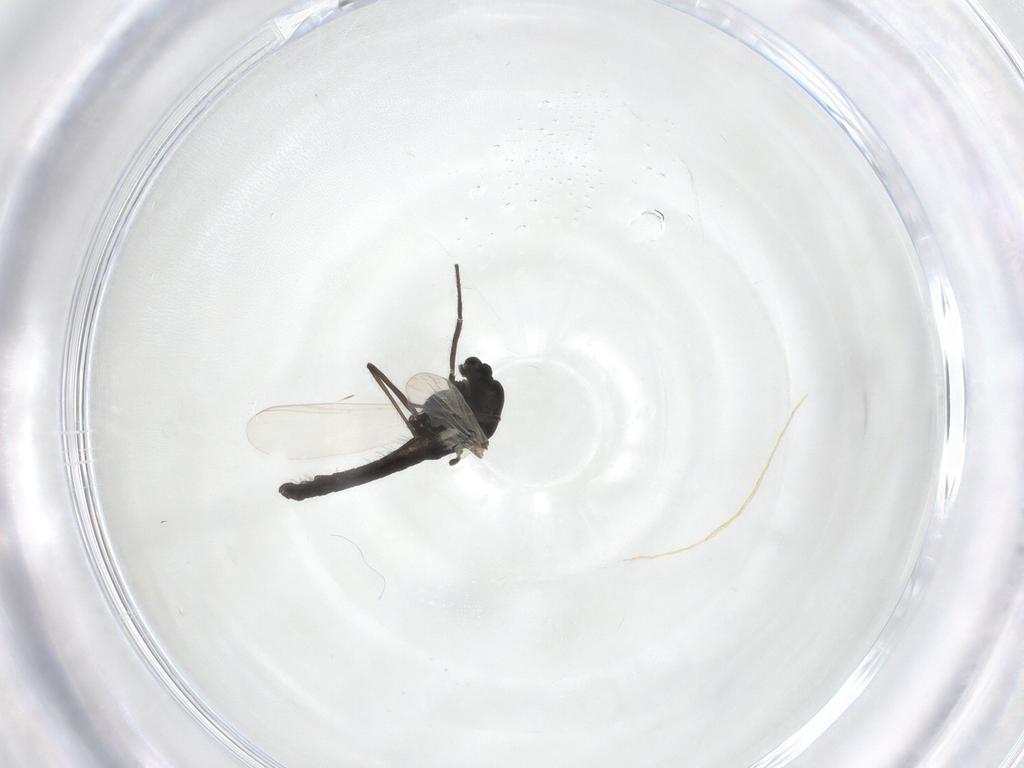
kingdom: Animalia
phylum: Arthropoda
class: Insecta
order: Diptera
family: Chironomidae
